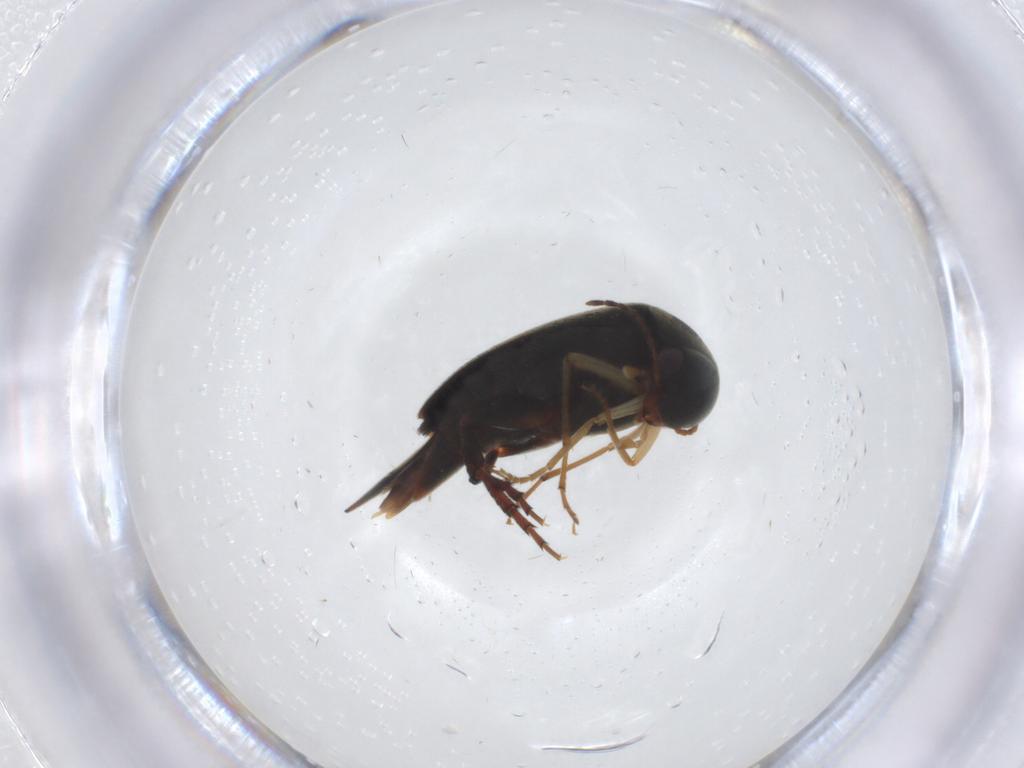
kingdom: Animalia
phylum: Arthropoda
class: Insecta
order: Coleoptera
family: Mordellidae
